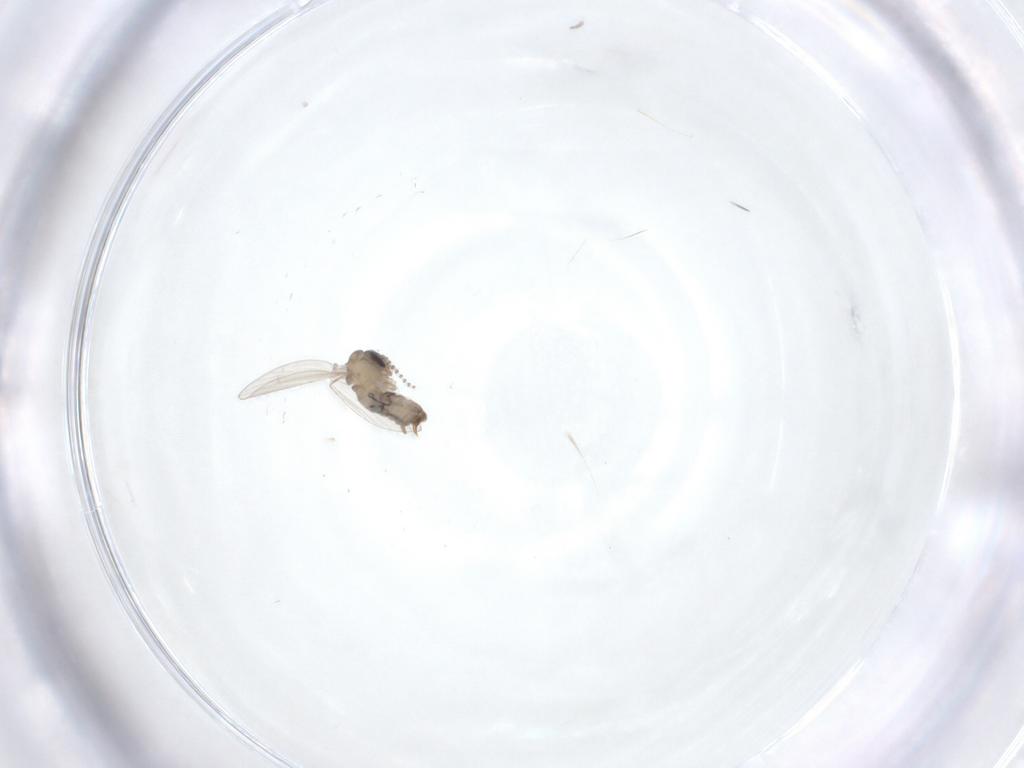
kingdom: Animalia
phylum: Arthropoda
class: Insecta
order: Diptera
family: Psychodidae
